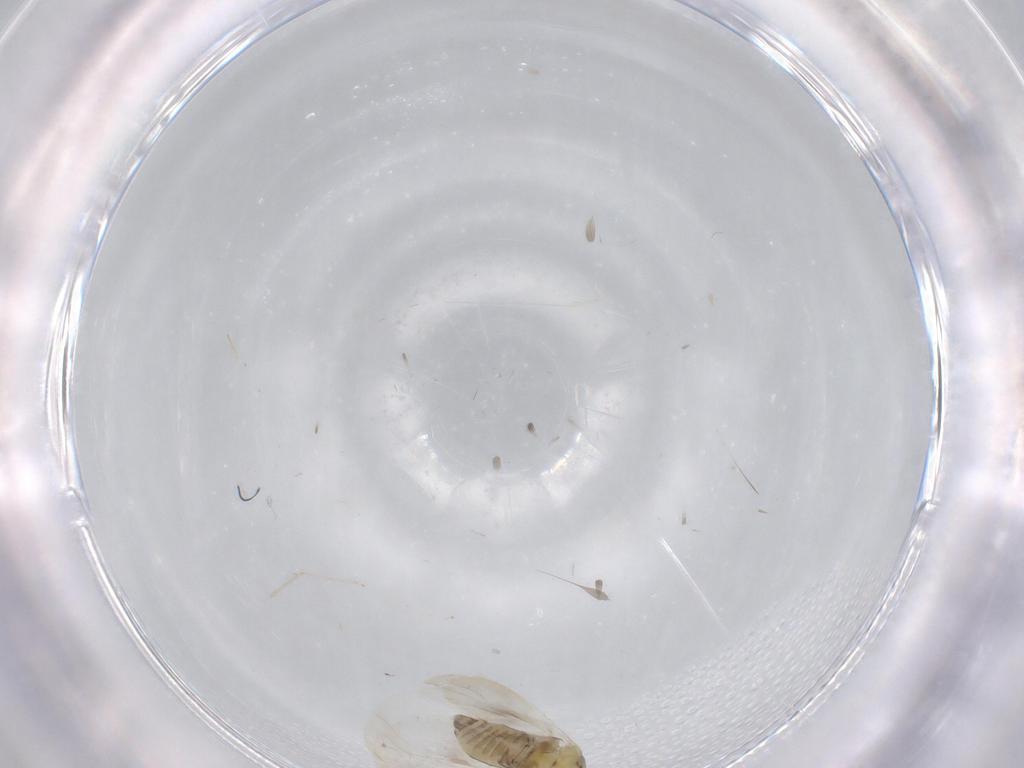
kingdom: Animalia
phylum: Arthropoda
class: Insecta
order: Hemiptera
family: Aleyrodidae
